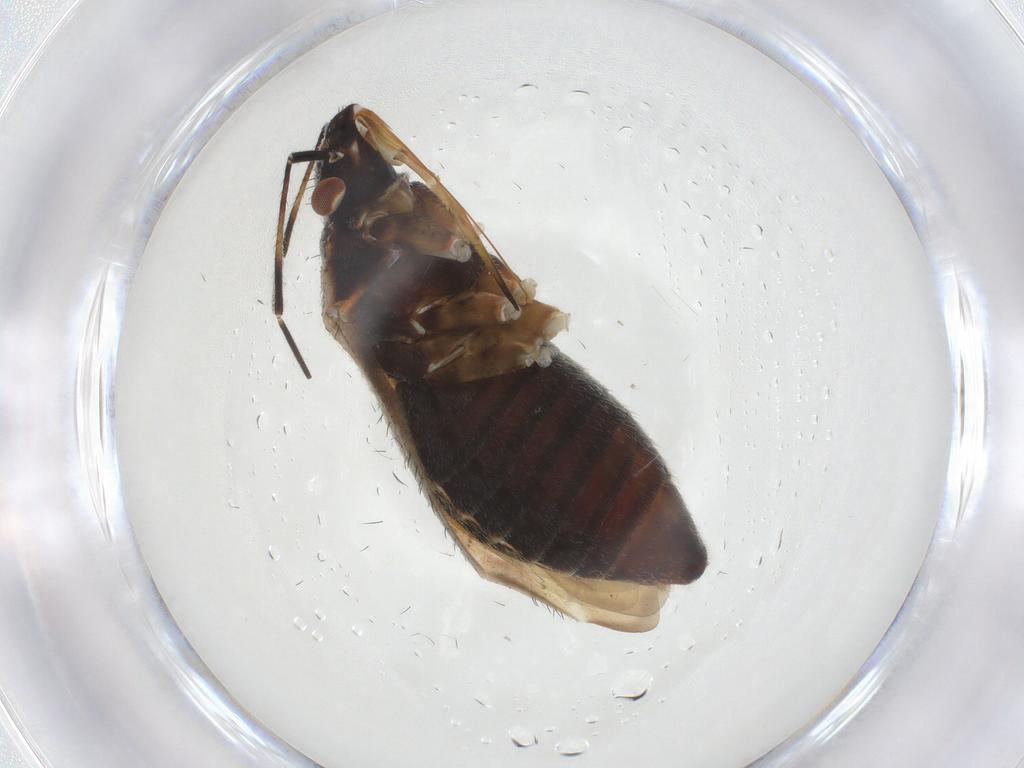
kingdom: Animalia
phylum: Arthropoda
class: Insecta
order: Hemiptera
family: Miridae
